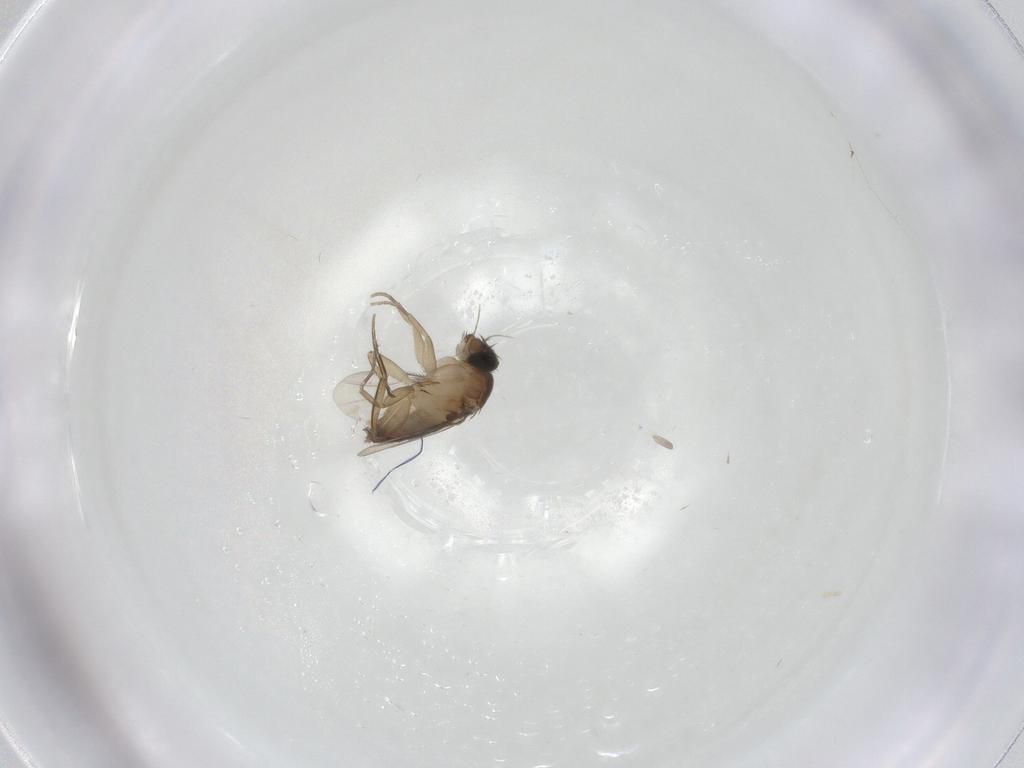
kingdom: Animalia
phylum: Arthropoda
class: Insecta
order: Diptera
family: Phoridae
